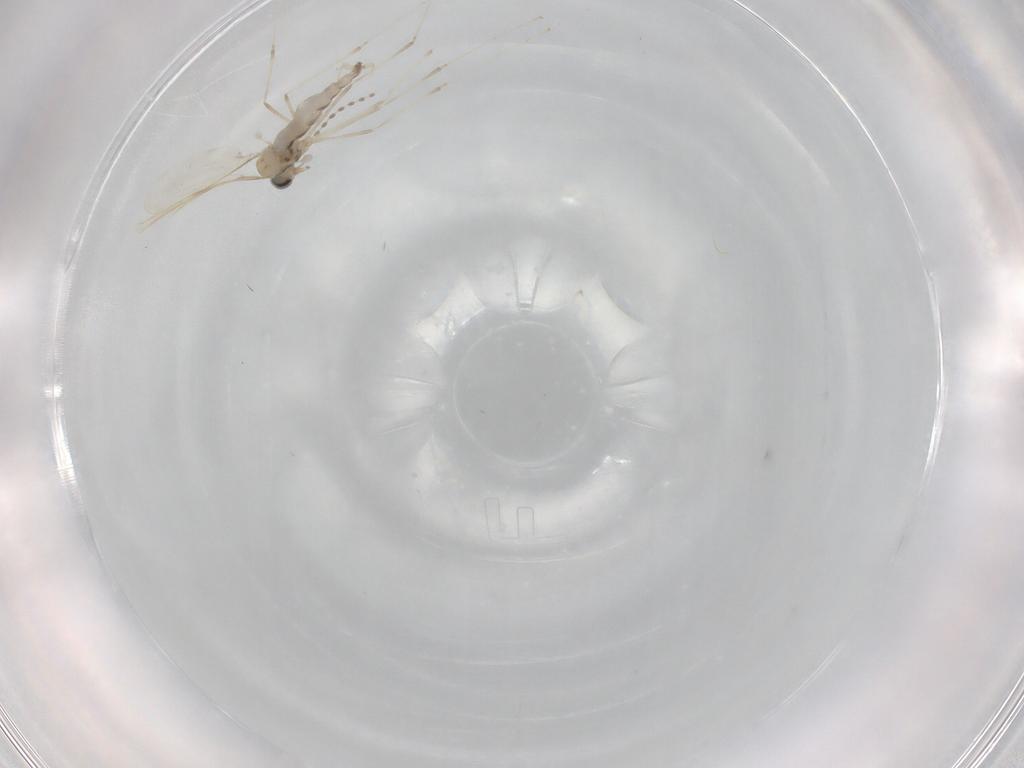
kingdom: Animalia
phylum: Arthropoda
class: Insecta
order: Diptera
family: Cecidomyiidae
